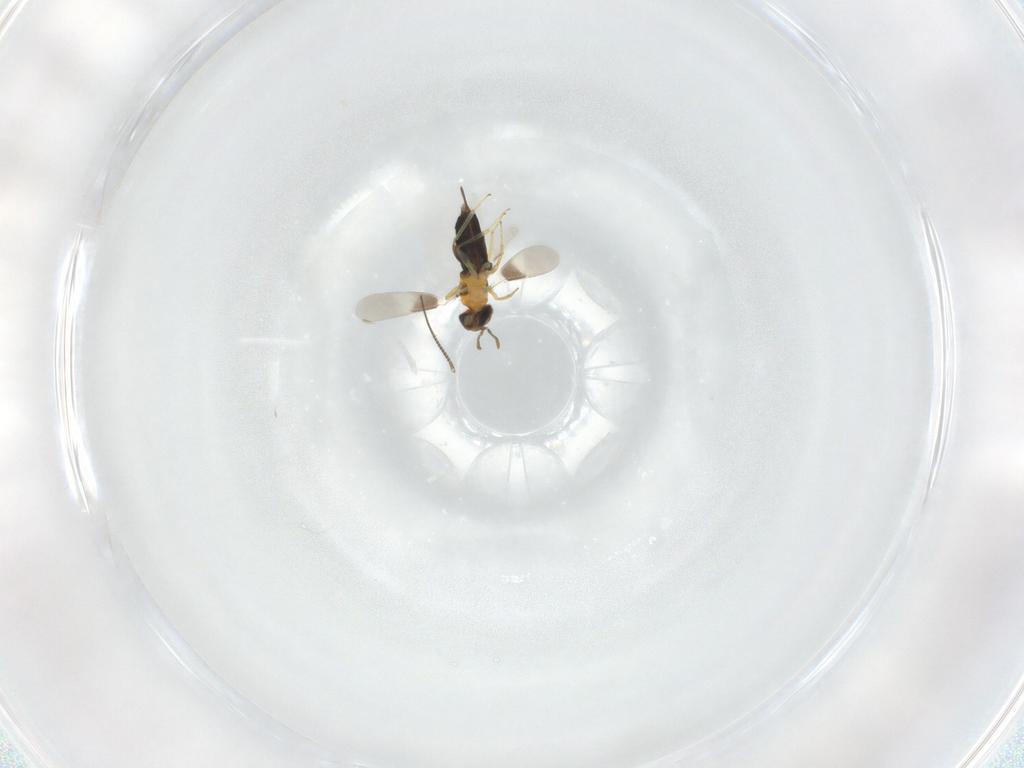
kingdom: Animalia
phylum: Arthropoda
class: Insecta
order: Hymenoptera
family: Aphelinidae
